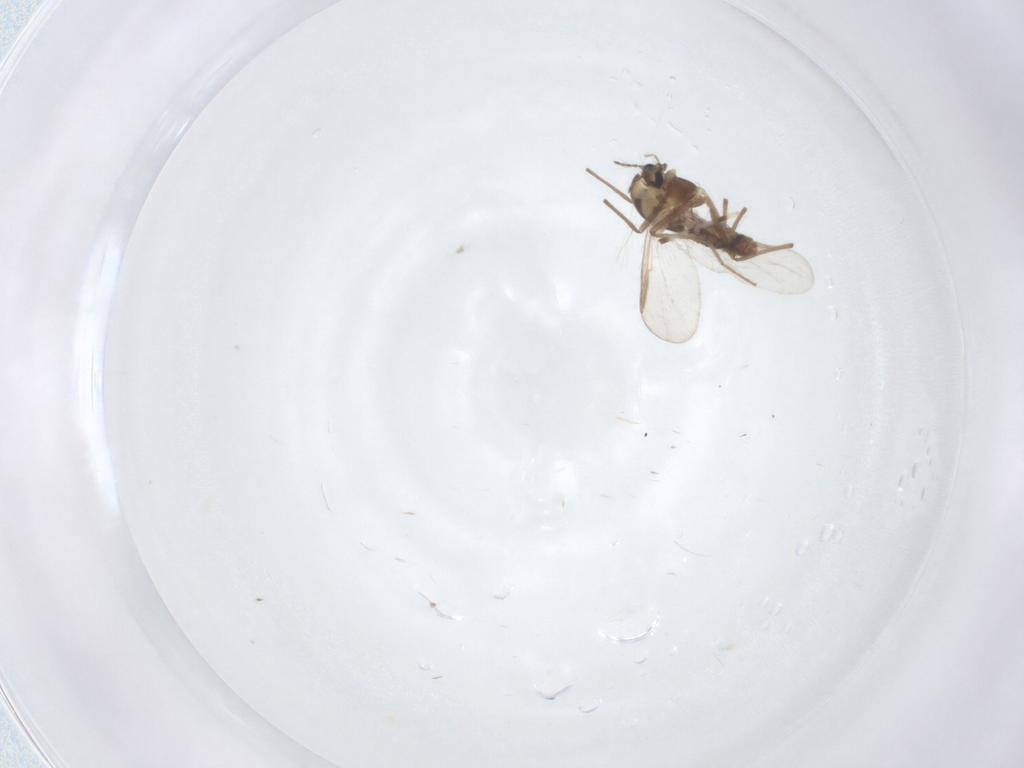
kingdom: Animalia
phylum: Arthropoda
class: Insecta
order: Diptera
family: Chironomidae
